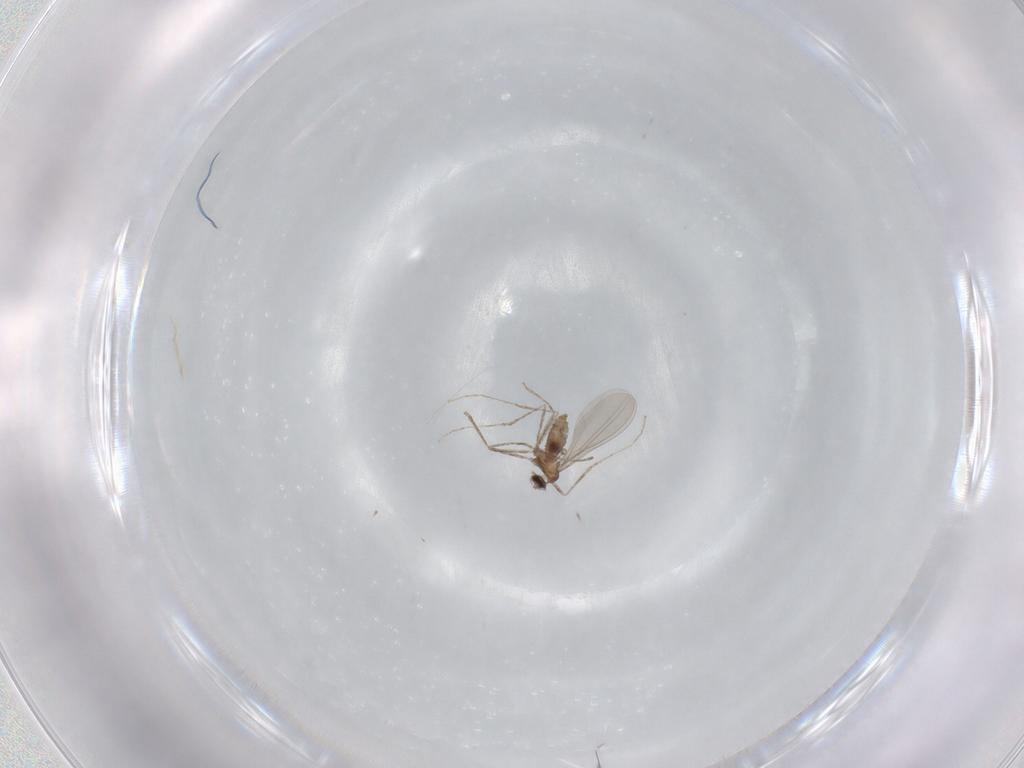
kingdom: Animalia
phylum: Arthropoda
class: Insecta
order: Diptera
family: Cecidomyiidae
